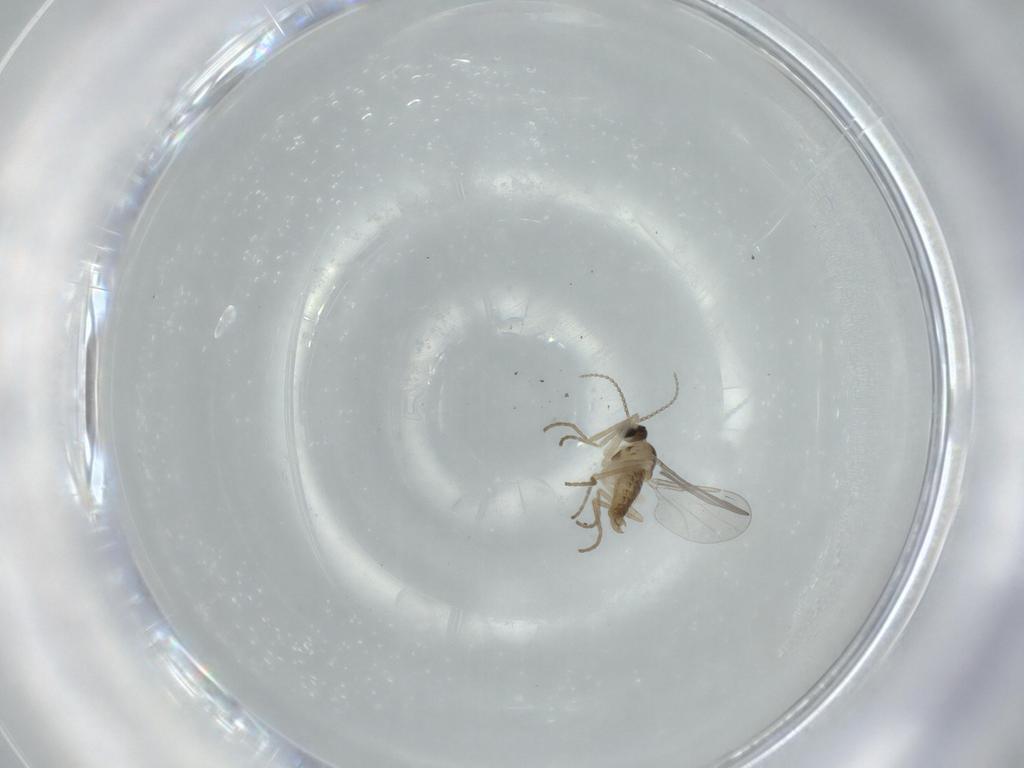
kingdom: Animalia
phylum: Arthropoda
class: Insecta
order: Diptera
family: Cecidomyiidae
